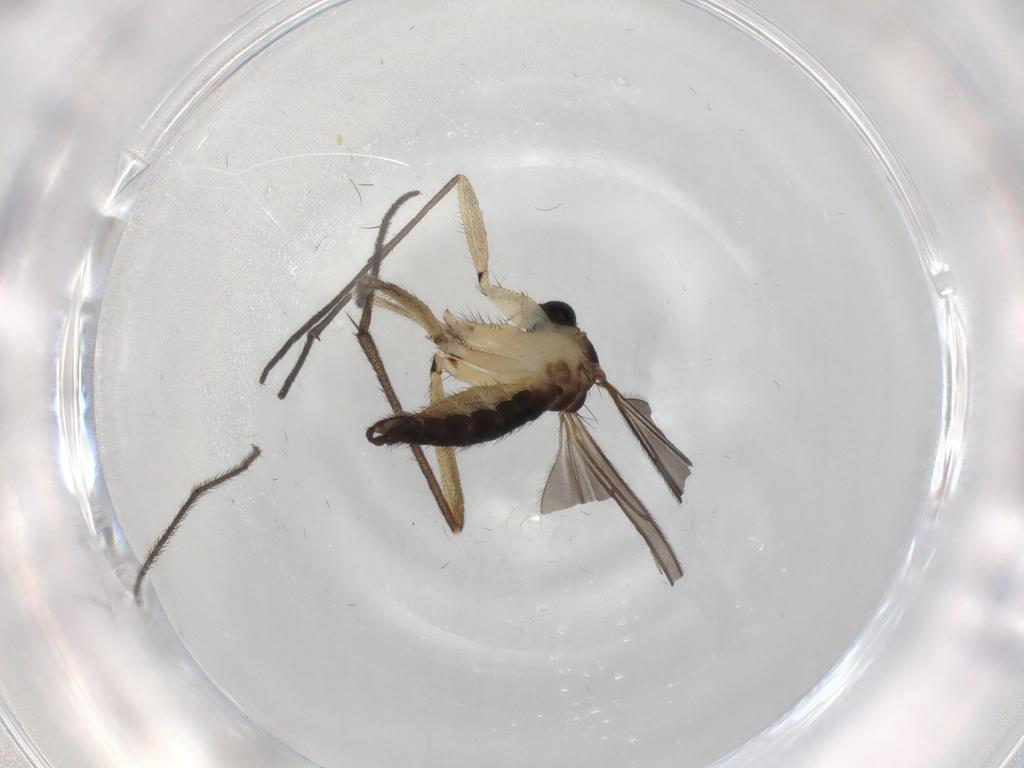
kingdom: Animalia
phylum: Arthropoda
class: Insecta
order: Diptera
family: Sciaridae
